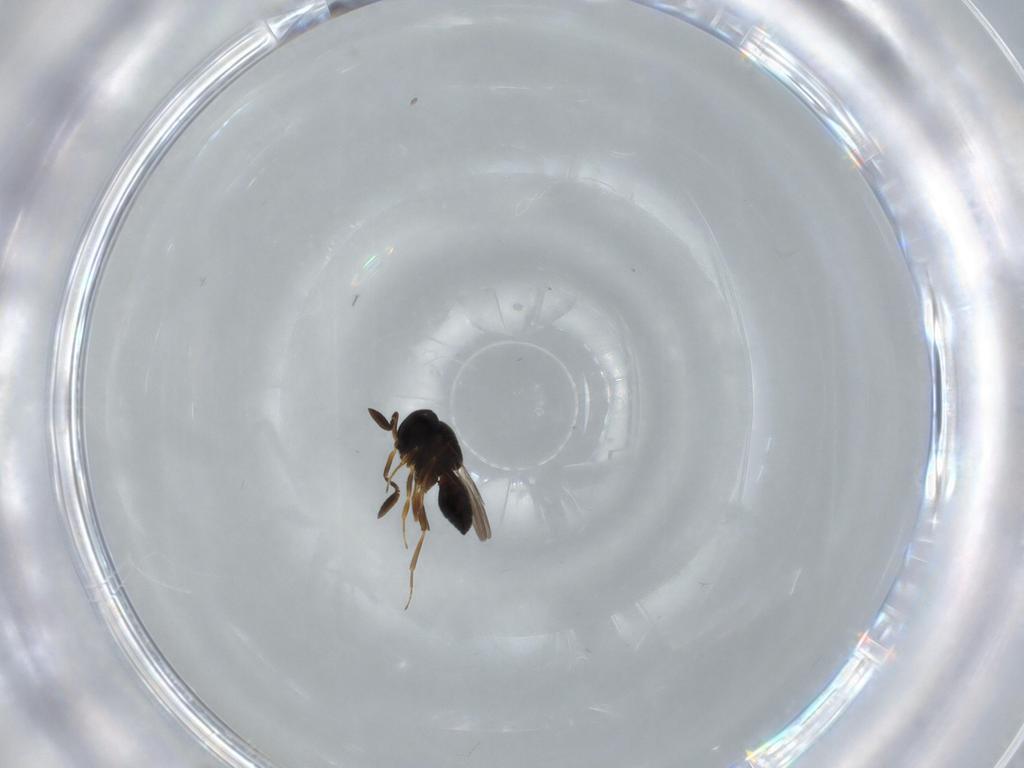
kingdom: Animalia
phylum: Arthropoda
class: Insecta
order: Coleoptera
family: Curculionidae
